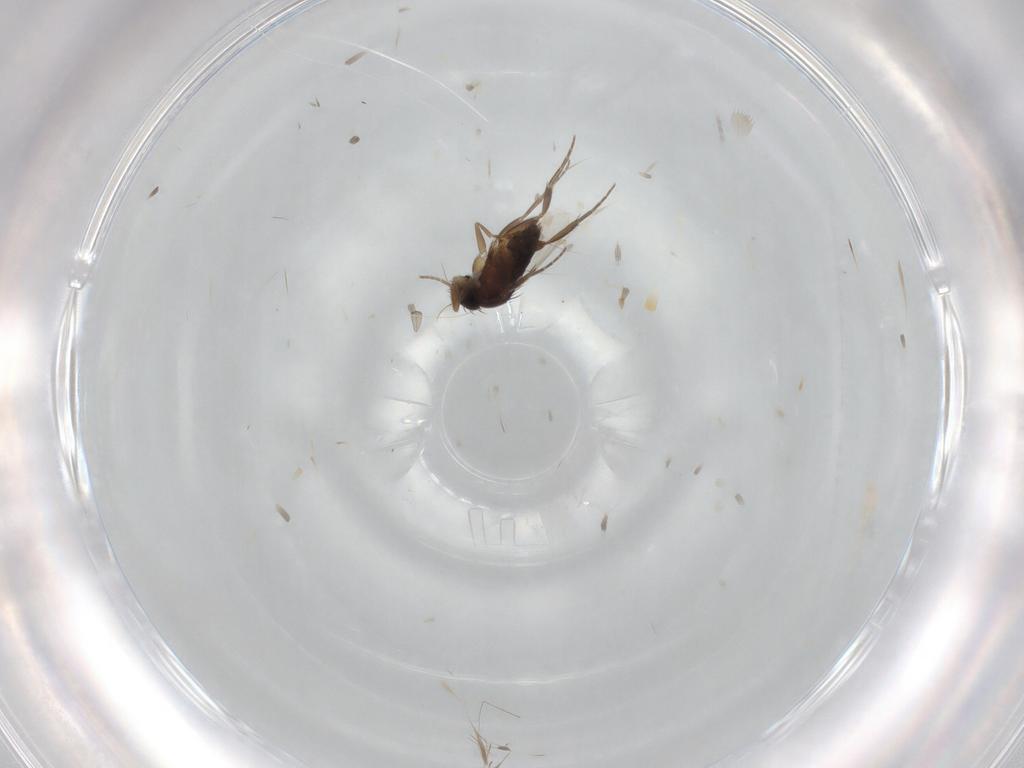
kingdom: Animalia
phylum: Arthropoda
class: Insecta
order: Diptera
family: Phoridae
